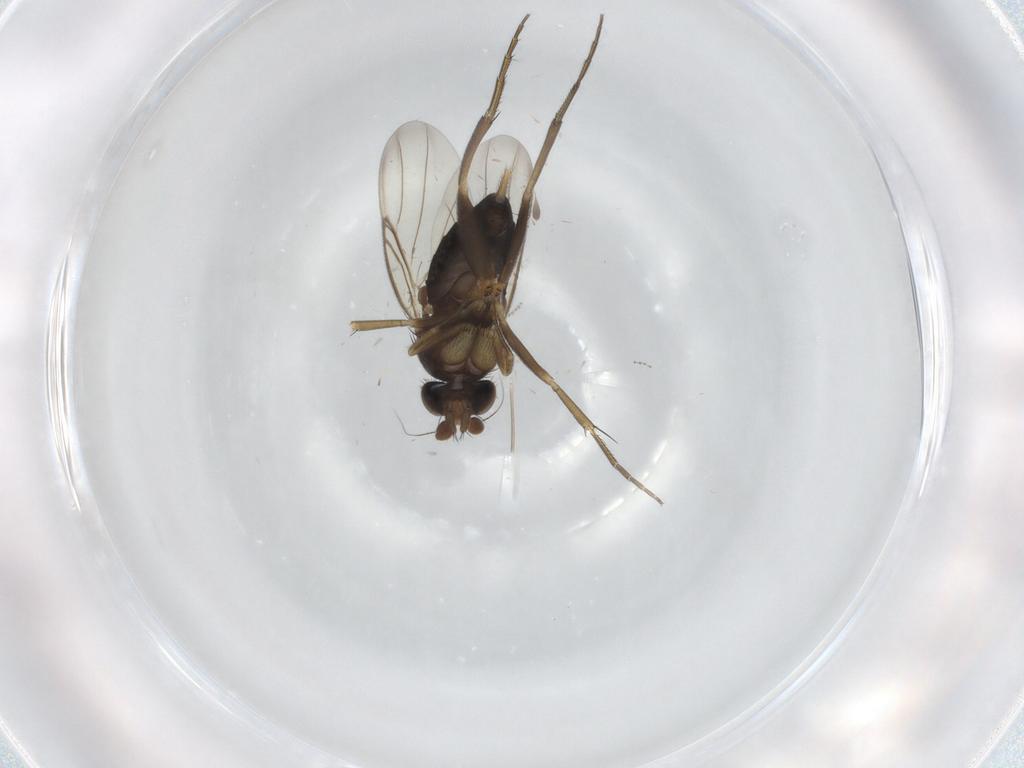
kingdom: Animalia
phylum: Arthropoda
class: Insecta
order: Diptera
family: Phoridae
